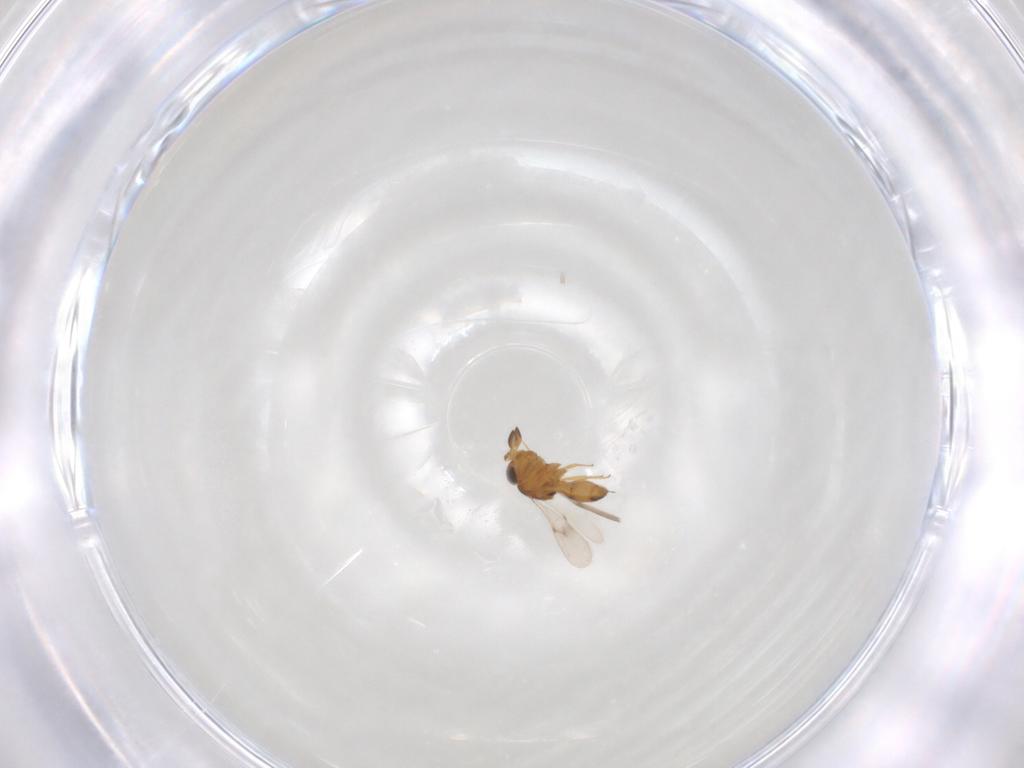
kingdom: Animalia
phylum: Arthropoda
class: Insecta
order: Hymenoptera
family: Scelionidae
